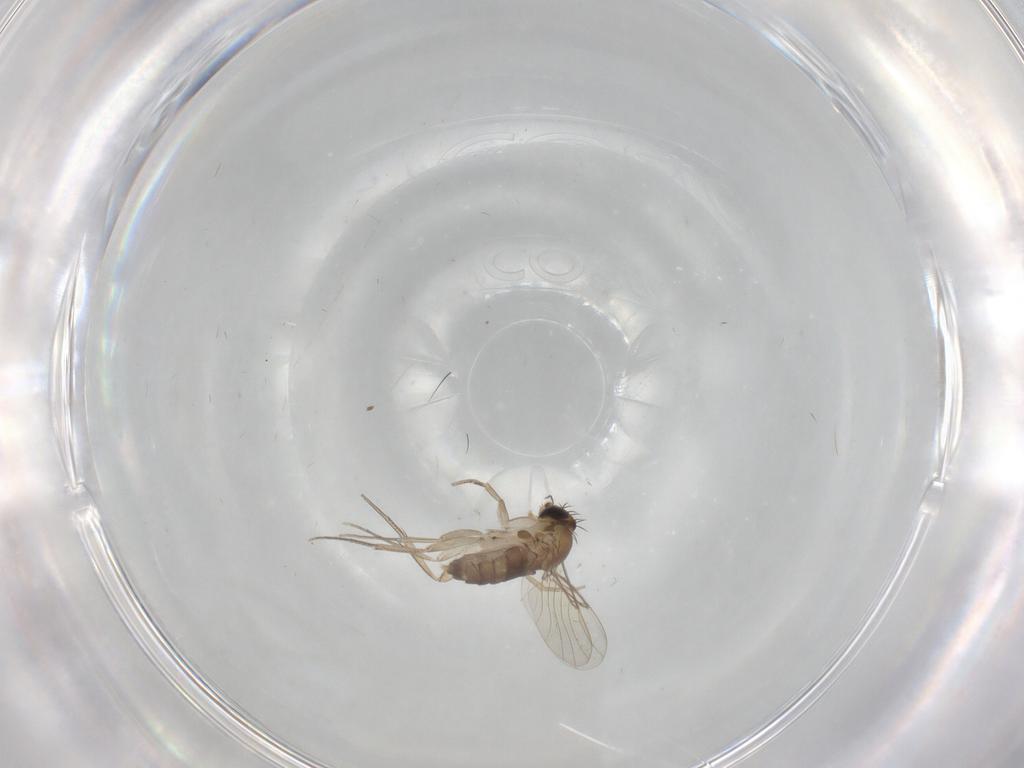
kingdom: Animalia
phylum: Arthropoda
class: Insecta
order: Diptera
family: Phoridae
